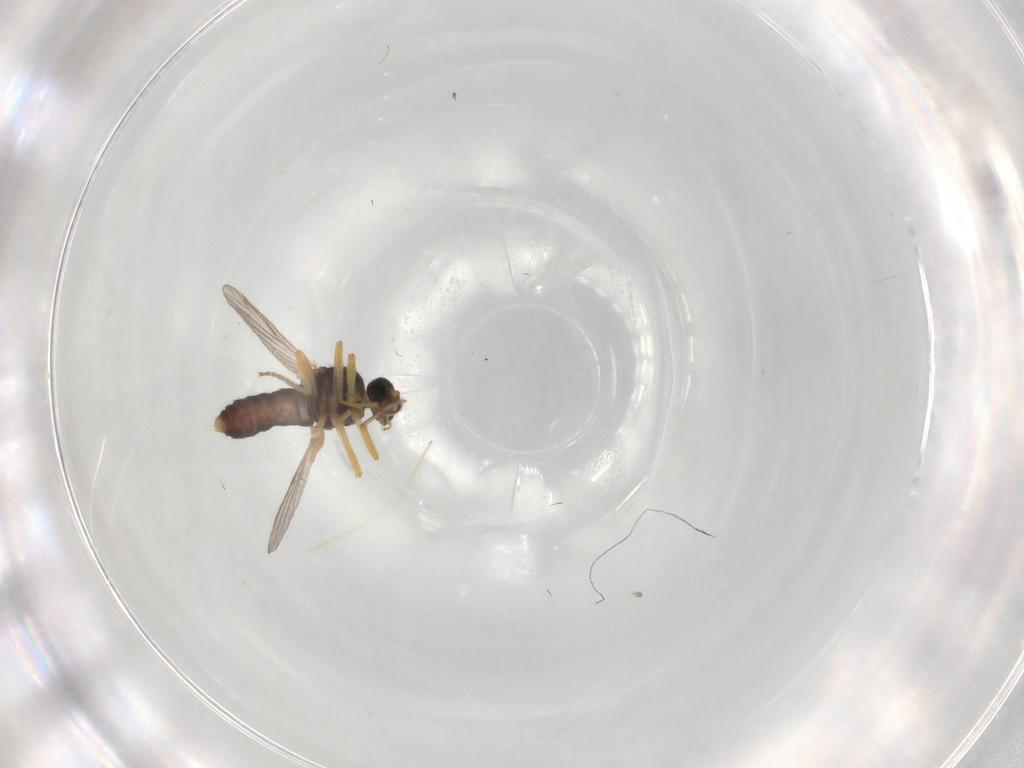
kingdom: Animalia
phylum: Arthropoda
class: Insecta
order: Diptera
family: Sciaridae
